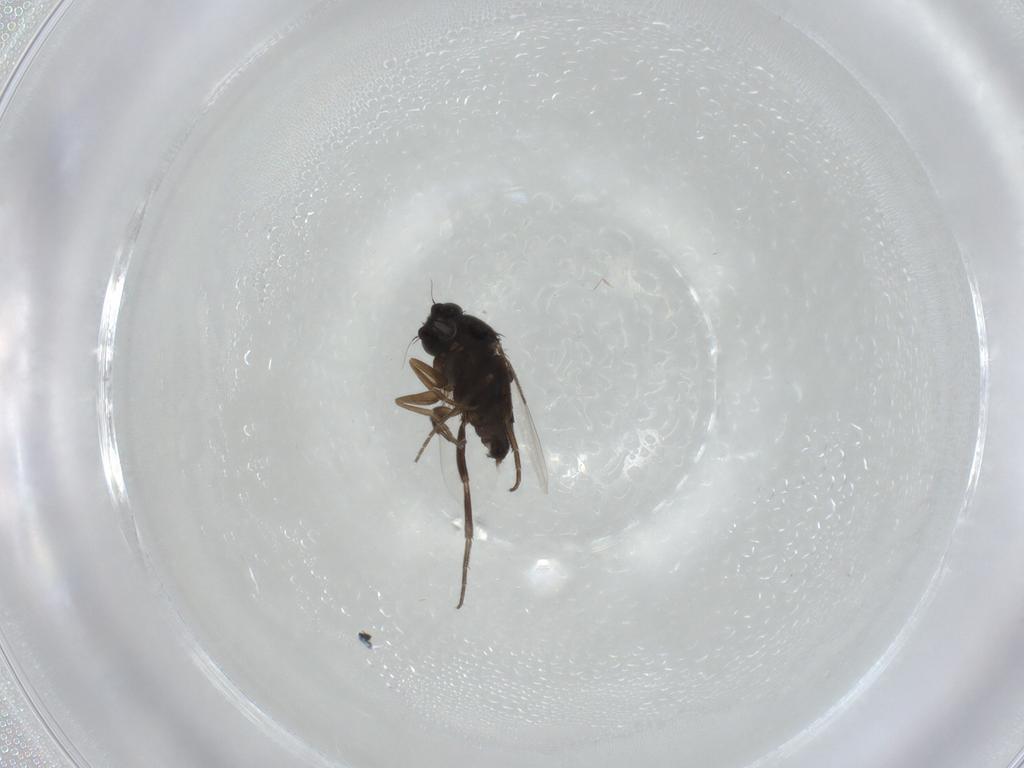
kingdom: Animalia
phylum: Arthropoda
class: Insecta
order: Diptera
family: Phoridae
